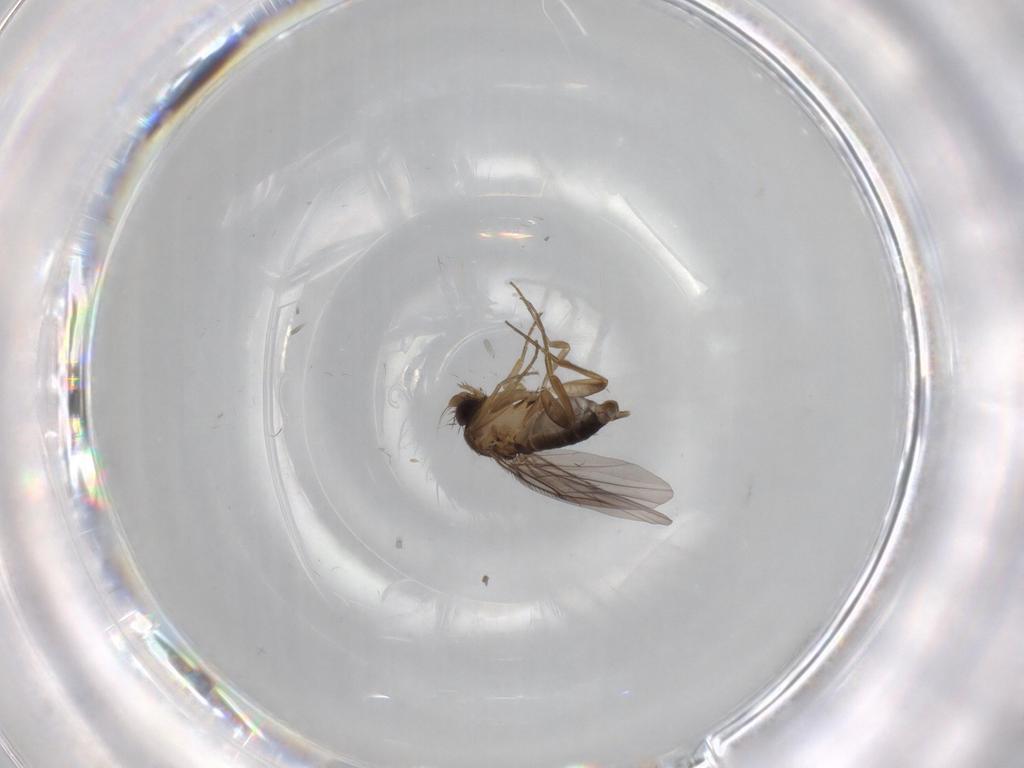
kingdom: Animalia
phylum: Arthropoda
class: Insecta
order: Diptera
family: Phoridae
